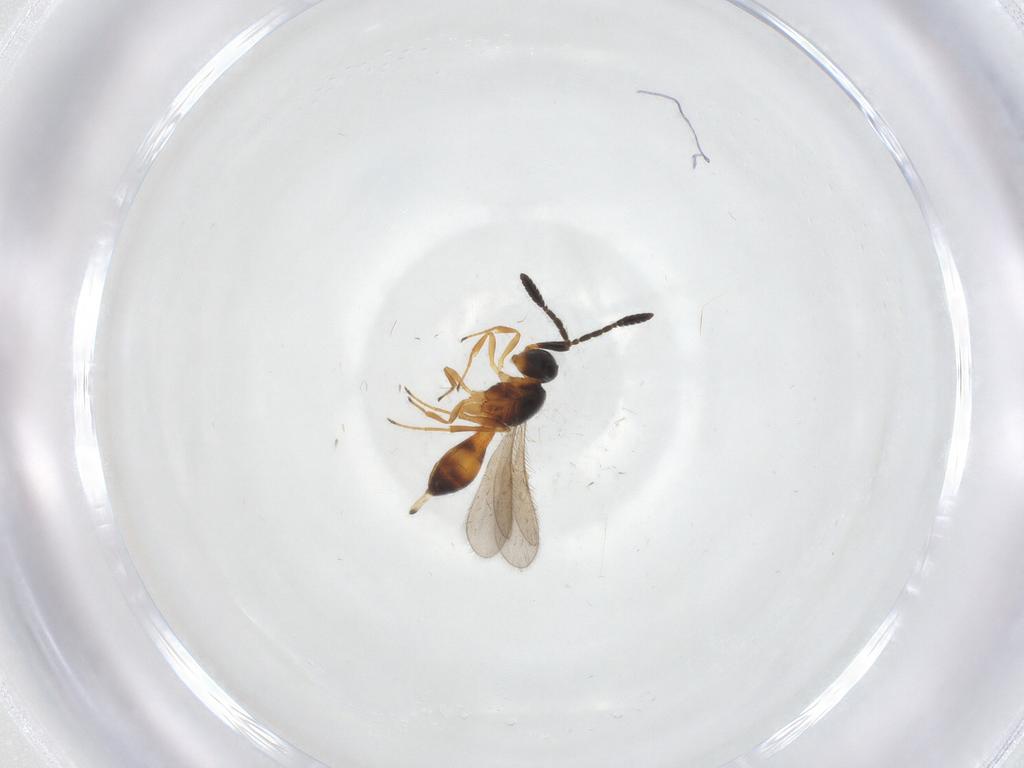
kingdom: Animalia
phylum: Arthropoda
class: Insecta
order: Hymenoptera
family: Scelionidae
